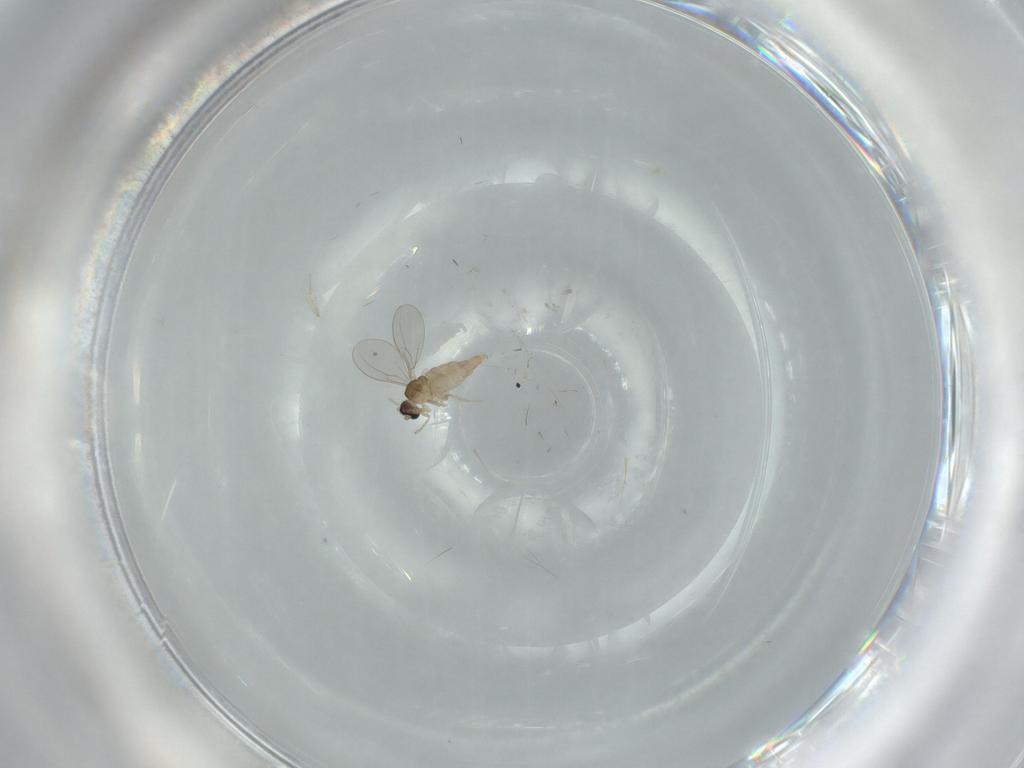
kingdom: Animalia
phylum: Arthropoda
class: Insecta
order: Diptera
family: Cecidomyiidae
